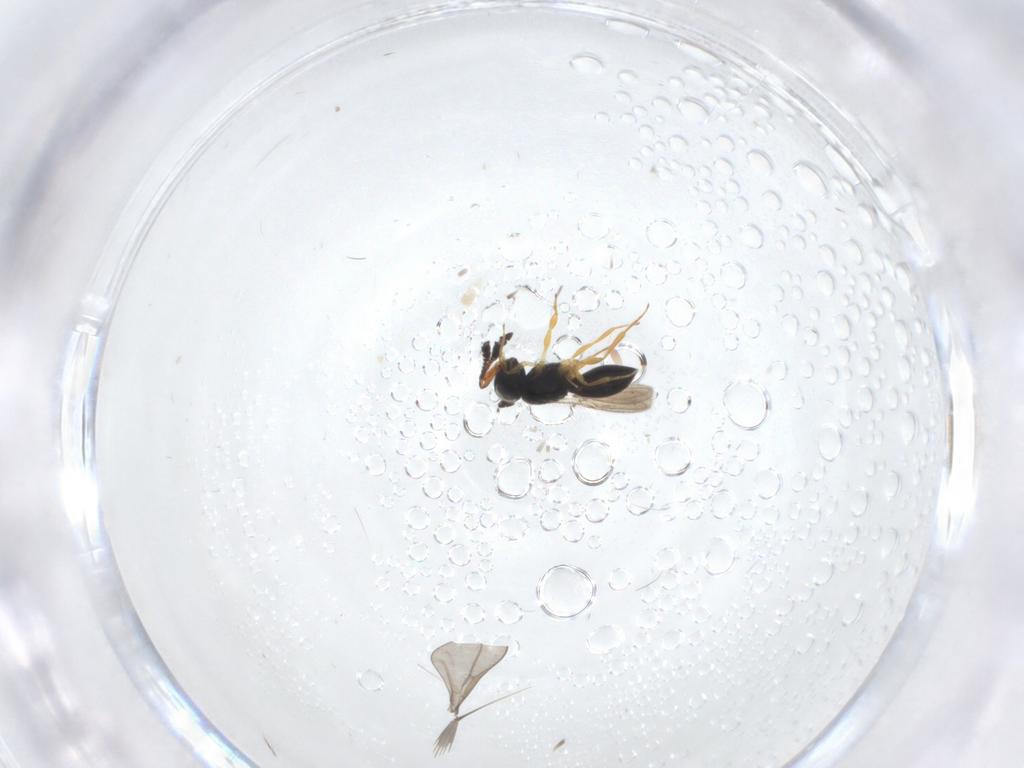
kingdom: Animalia
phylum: Arthropoda
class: Insecta
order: Hymenoptera
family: Scelionidae
